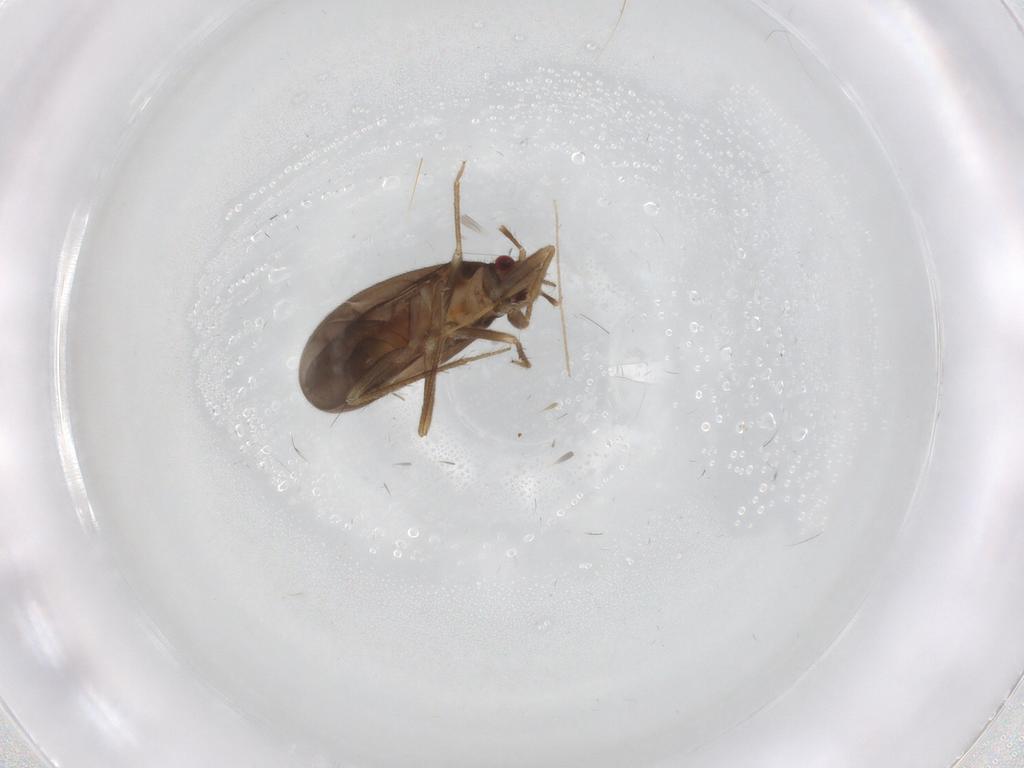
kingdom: Animalia
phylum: Arthropoda
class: Insecta
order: Hemiptera
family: Ceratocombidae
